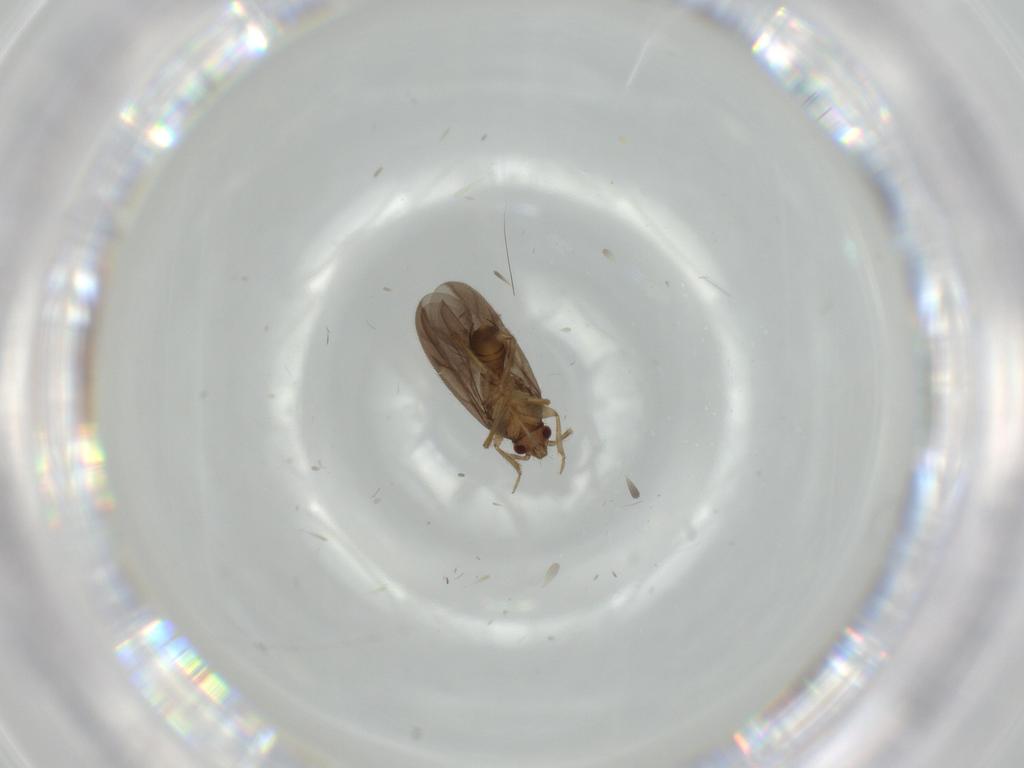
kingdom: Animalia
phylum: Arthropoda
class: Insecta
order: Hemiptera
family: Ceratocombidae
